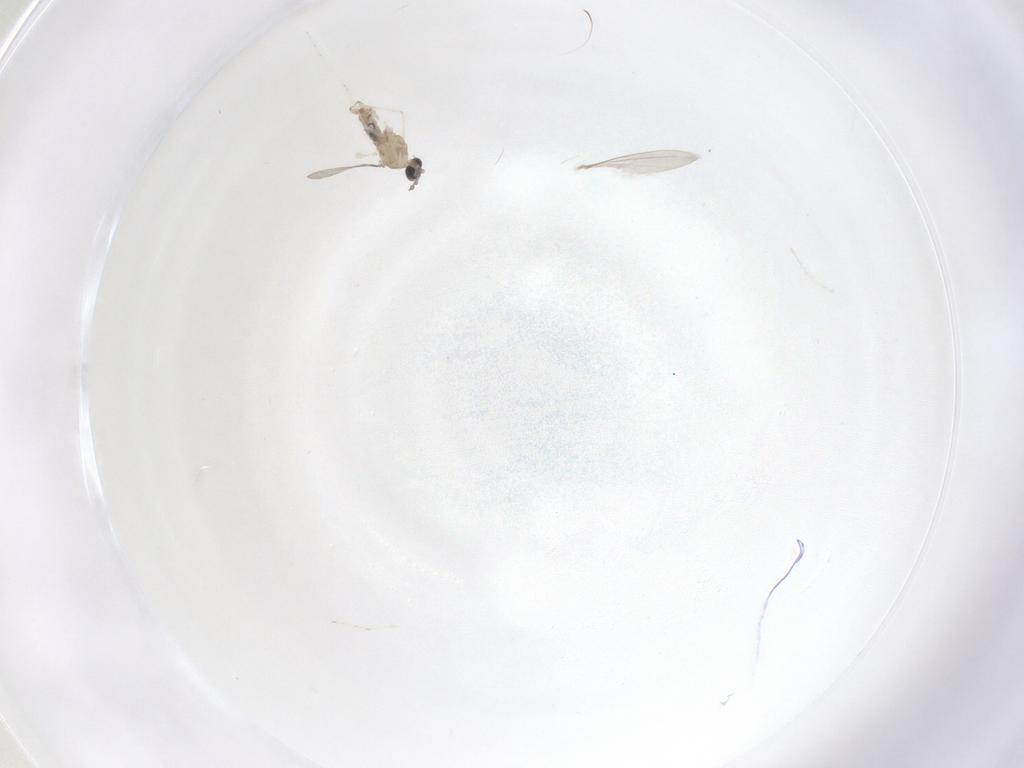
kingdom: Animalia
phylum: Arthropoda
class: Insecta
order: Diptera
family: Cecidomyiidae
